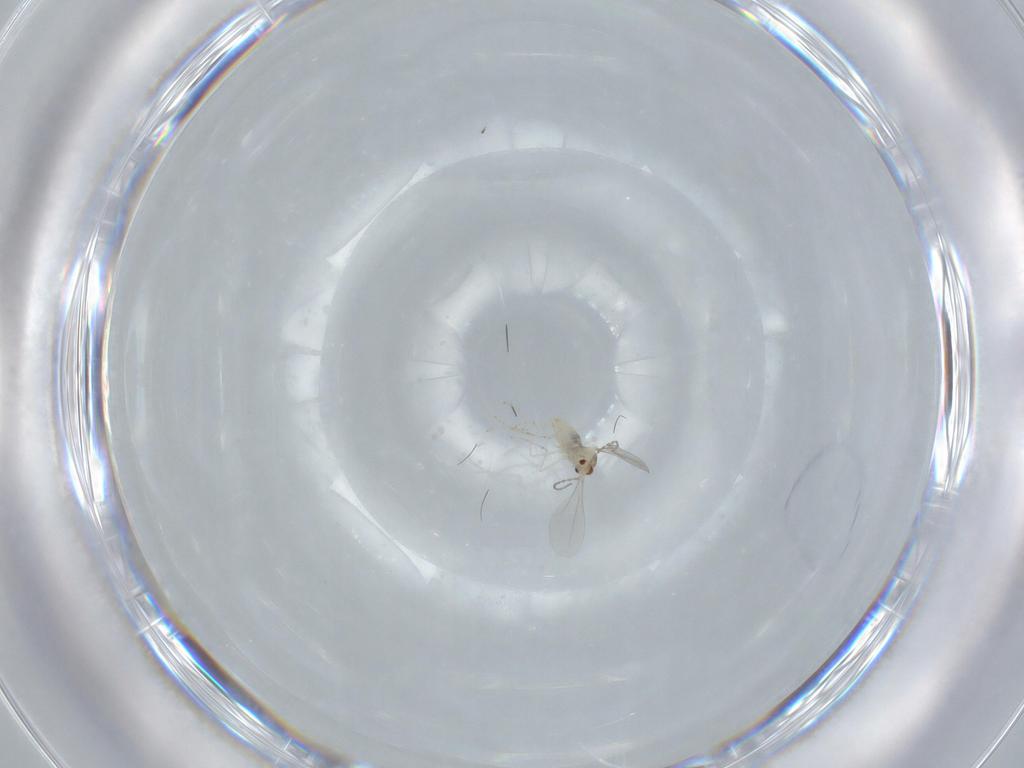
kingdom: Animalia
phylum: Arthropoda
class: Insecta
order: Diptera
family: Cecidomyiidae
